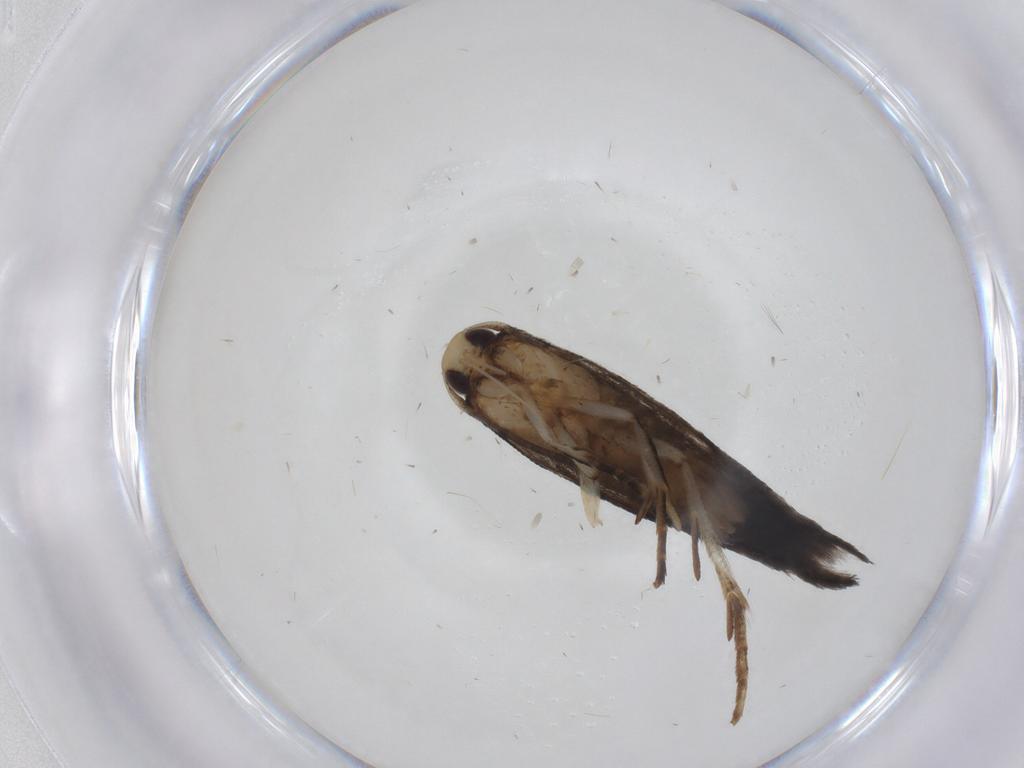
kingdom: Animalia
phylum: Arthropoda
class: Insecta
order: Lepidoptera
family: Cosmopterigidae
